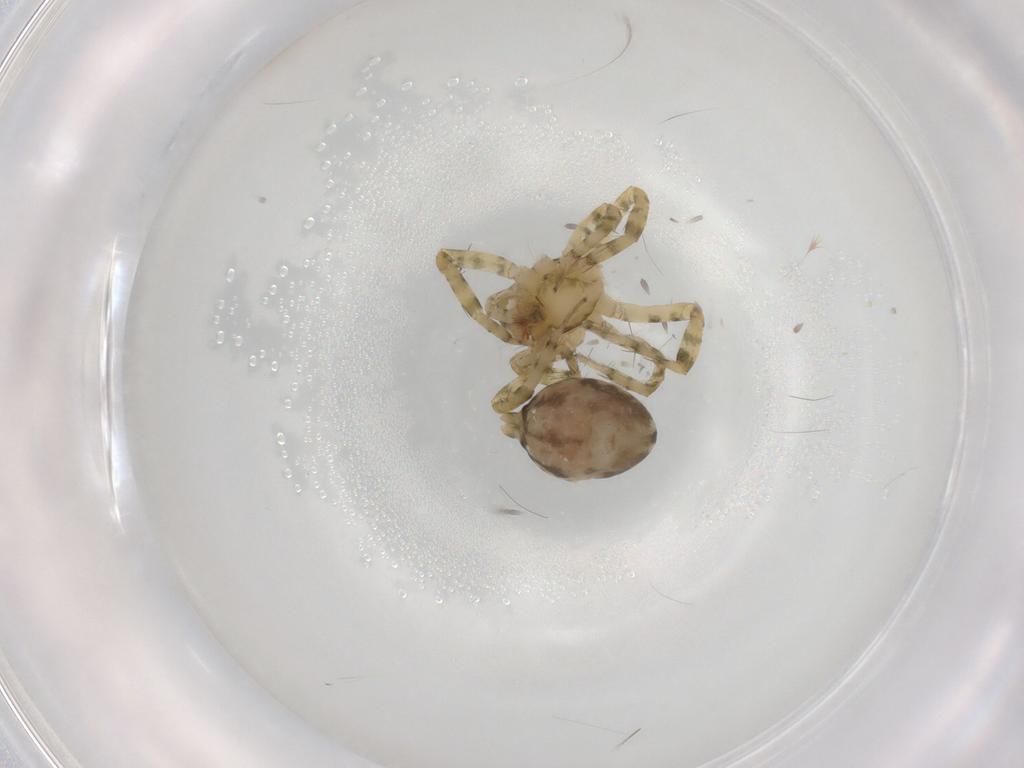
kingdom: Animalia
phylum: Arthropoda
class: Arachnida
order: Araneae
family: Amaurobiidae
